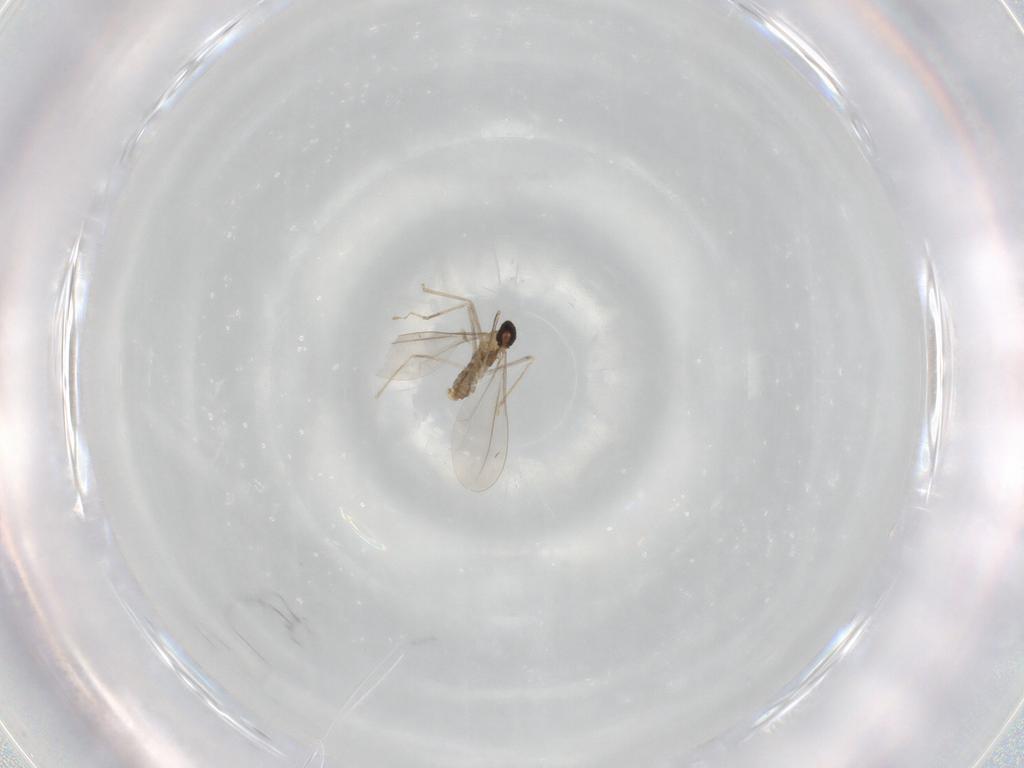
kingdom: Animalia
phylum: Arthropoda
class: Insecta
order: Diptera
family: Cecidomyiidae
